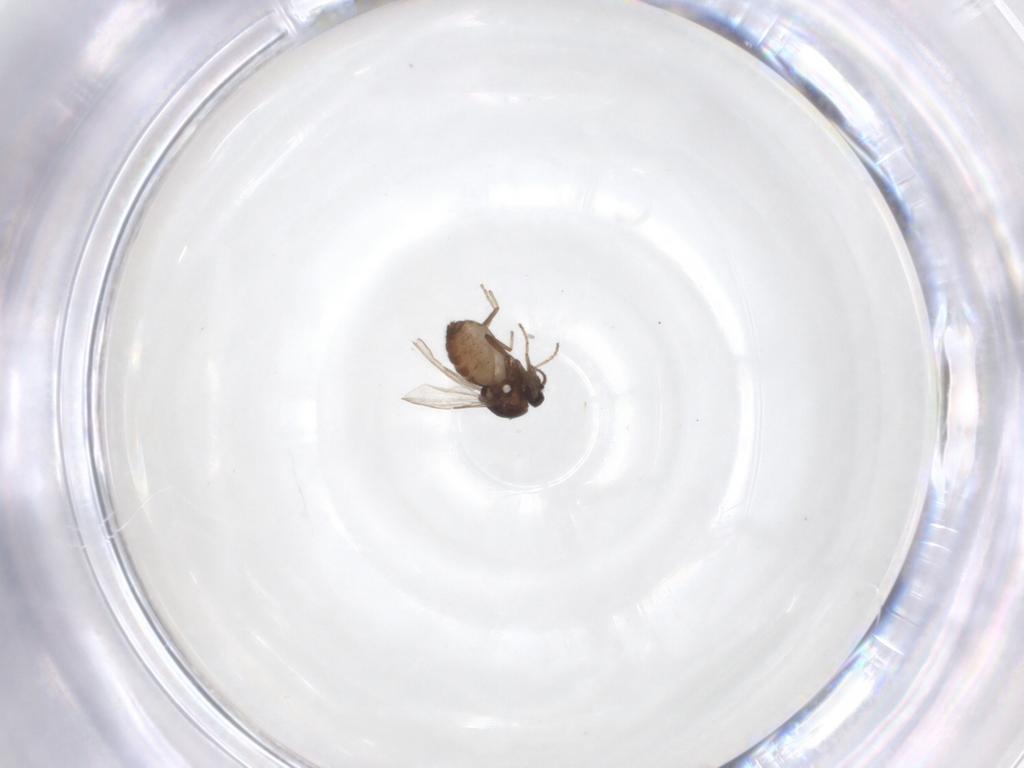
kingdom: Animalia
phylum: Arthropoda
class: Insecta
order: Diptera
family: Ceratopogonidae
